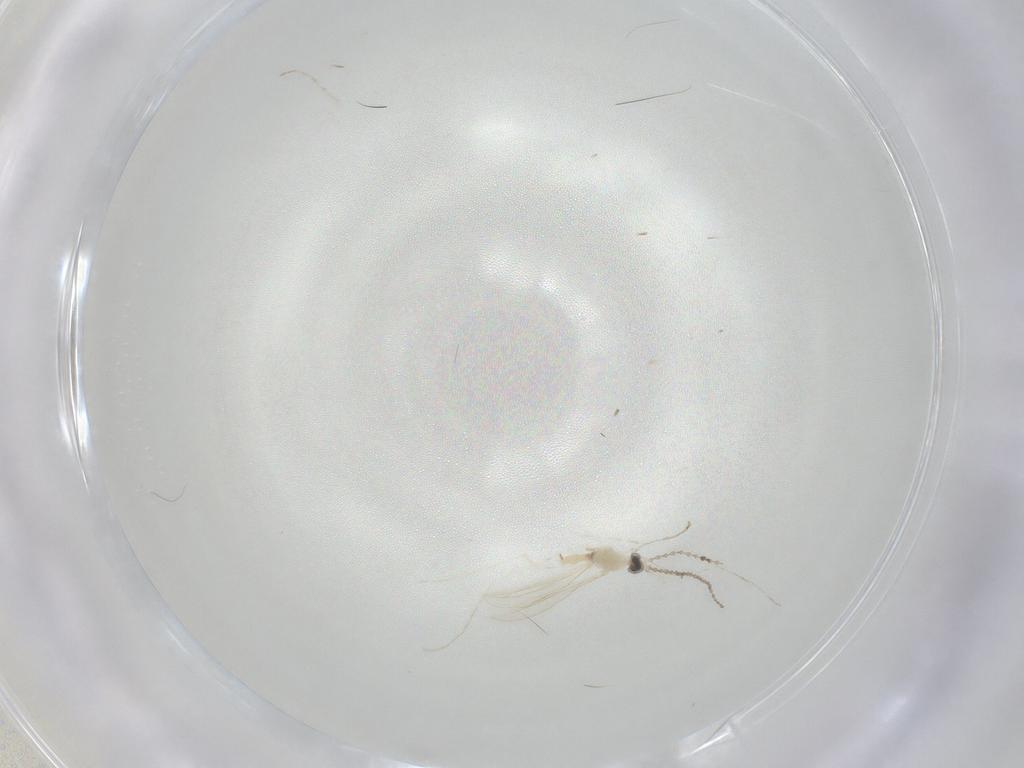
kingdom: Animalia
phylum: Arthropoda
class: Insecta
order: Diptera
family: Cecidomyiidae
